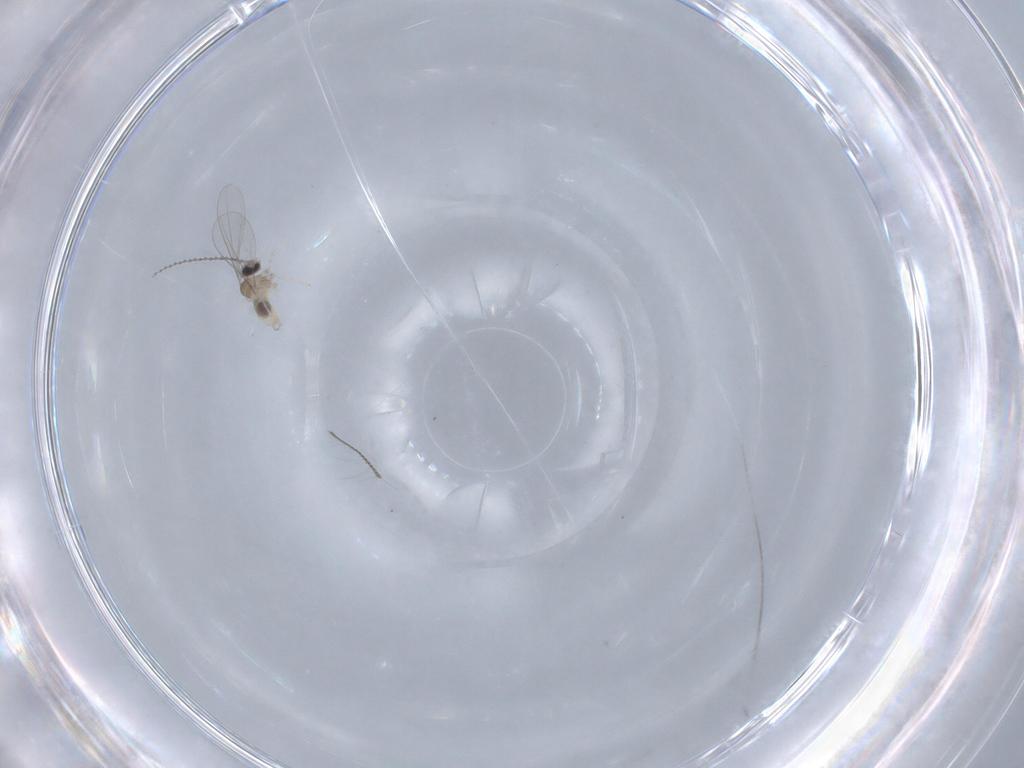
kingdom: Animalia
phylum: Arthropoda
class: Insecta
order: Diptera
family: Cecidomyiidae
